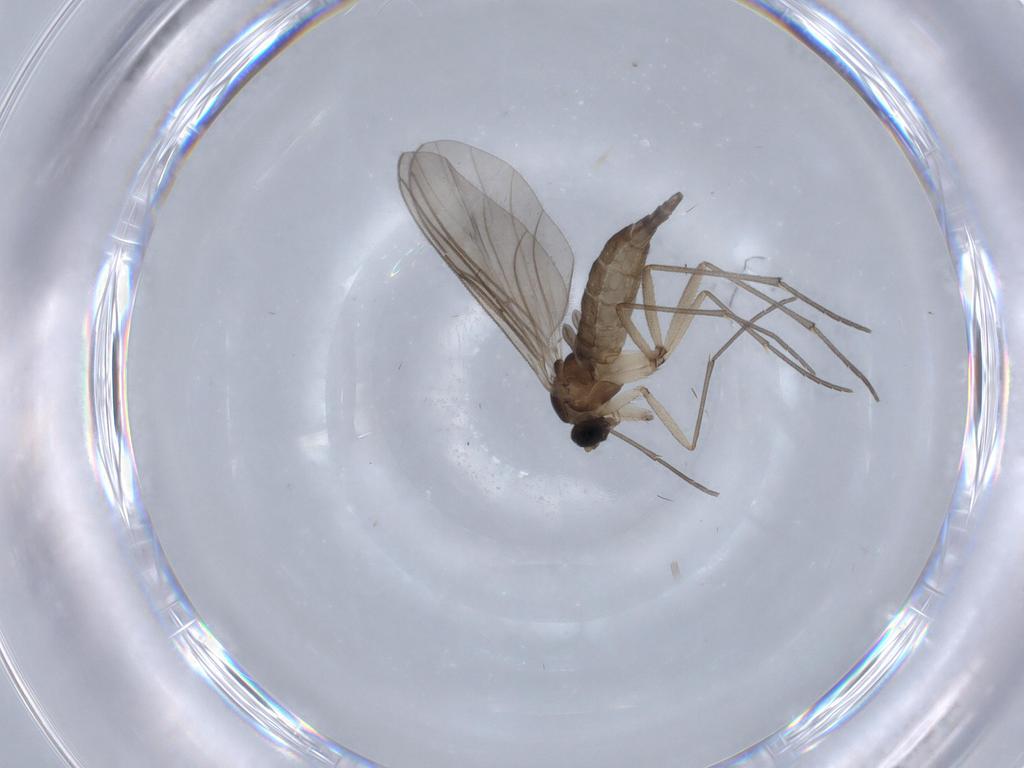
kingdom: Animalia
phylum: Arthropoda
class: Insecta
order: Diptera
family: Sciaridae
